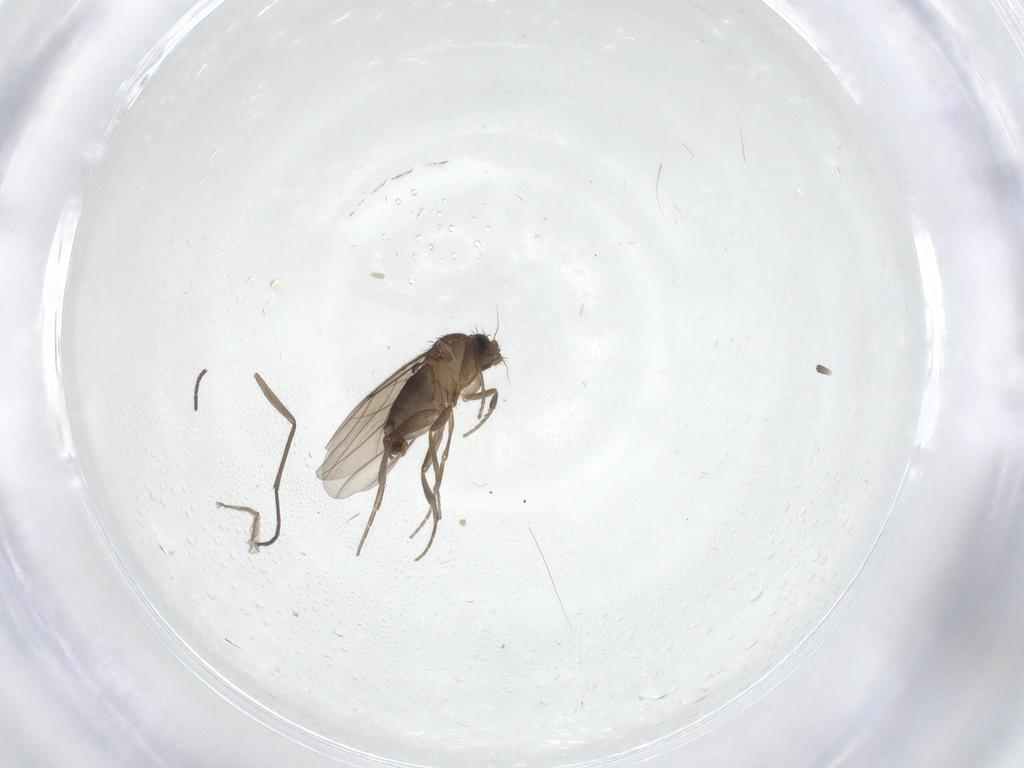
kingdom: Animalia
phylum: Arthropoda
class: Insecta
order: Diptera
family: Phoridae
